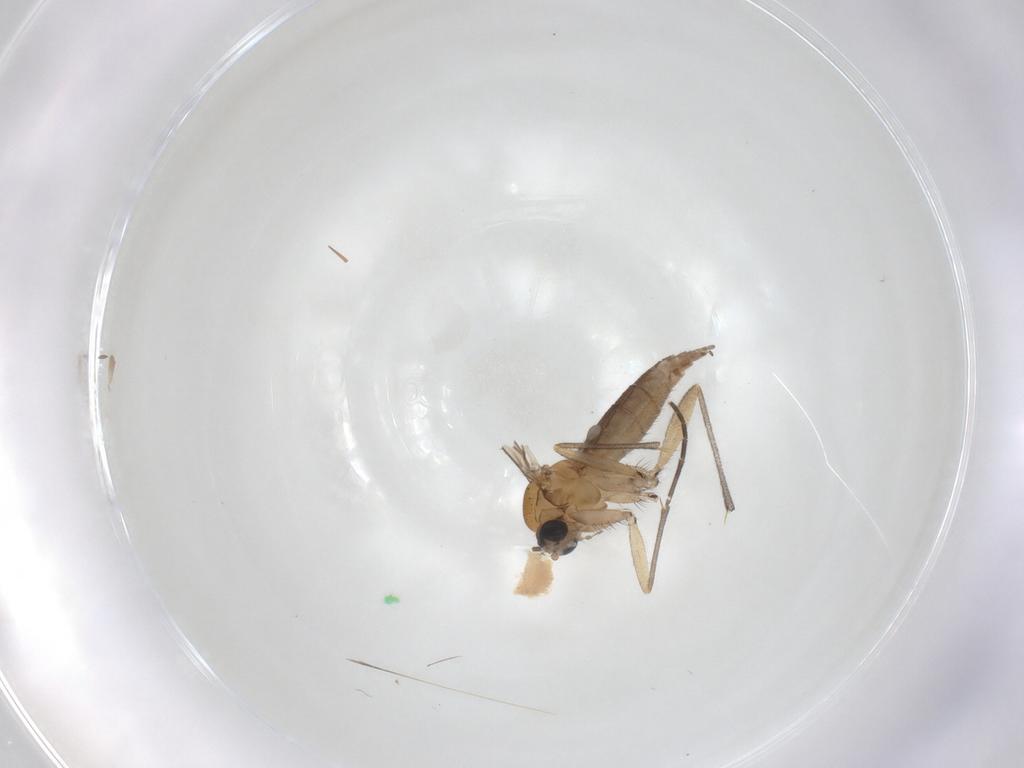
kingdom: Animalia
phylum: Arthropoda
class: Insecta
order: Diptera
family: Sciaridae
